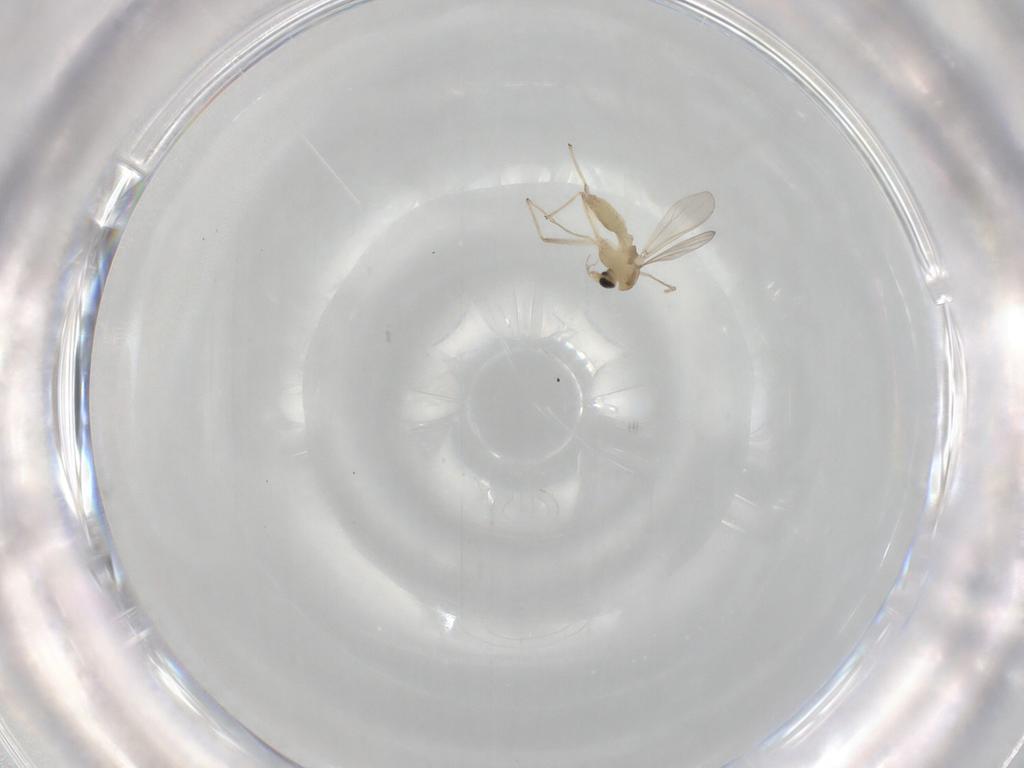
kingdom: Animalia
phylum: Arthropoda
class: Insecta
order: Diptera
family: Chironomidae
